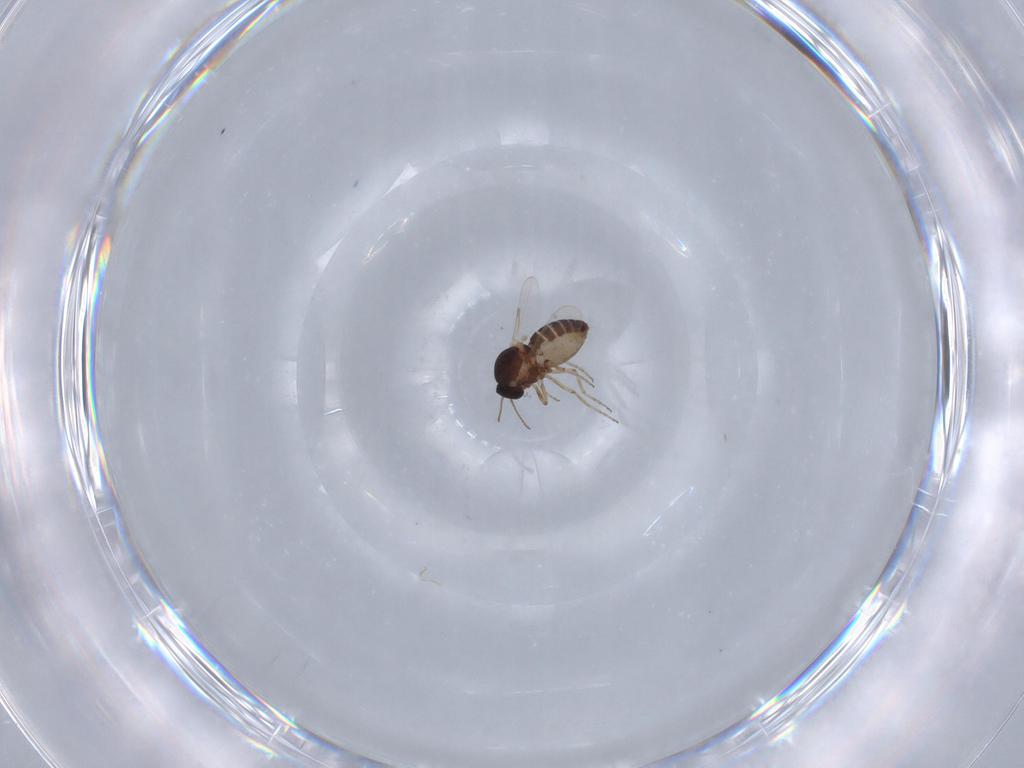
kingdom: Animalia
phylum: Arthropoda
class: Insecta
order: Diptera
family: Ceratopogonidae
